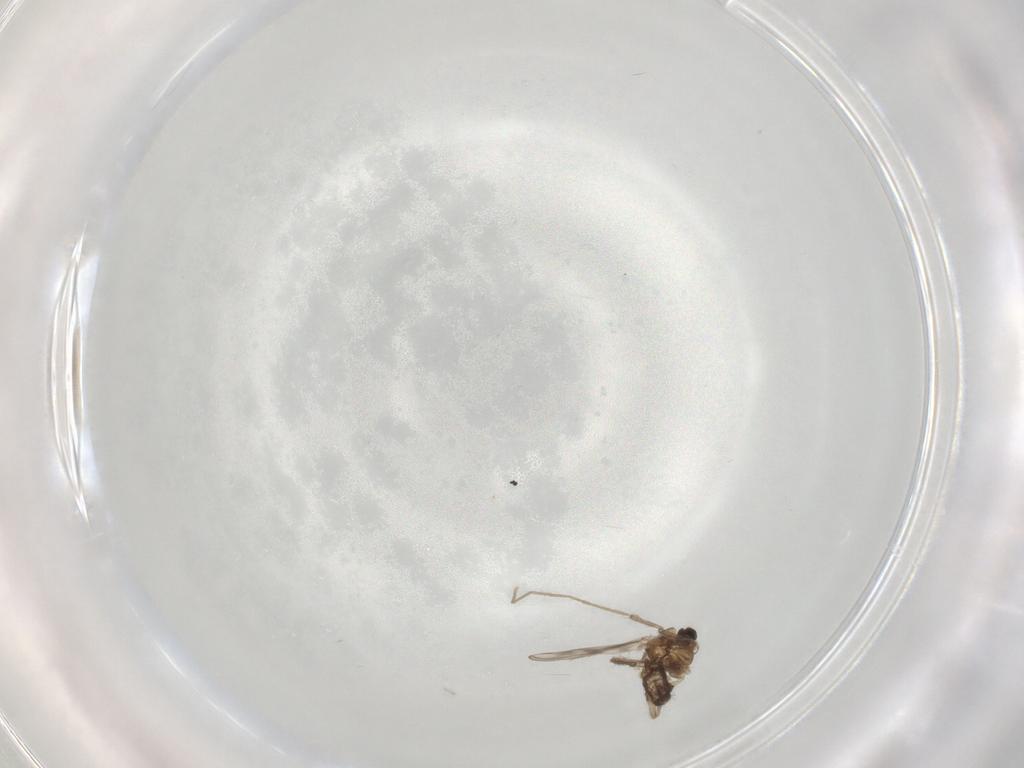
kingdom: Animalia
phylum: Arthropoda
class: Insecta
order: Diptera
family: Chironomidae
